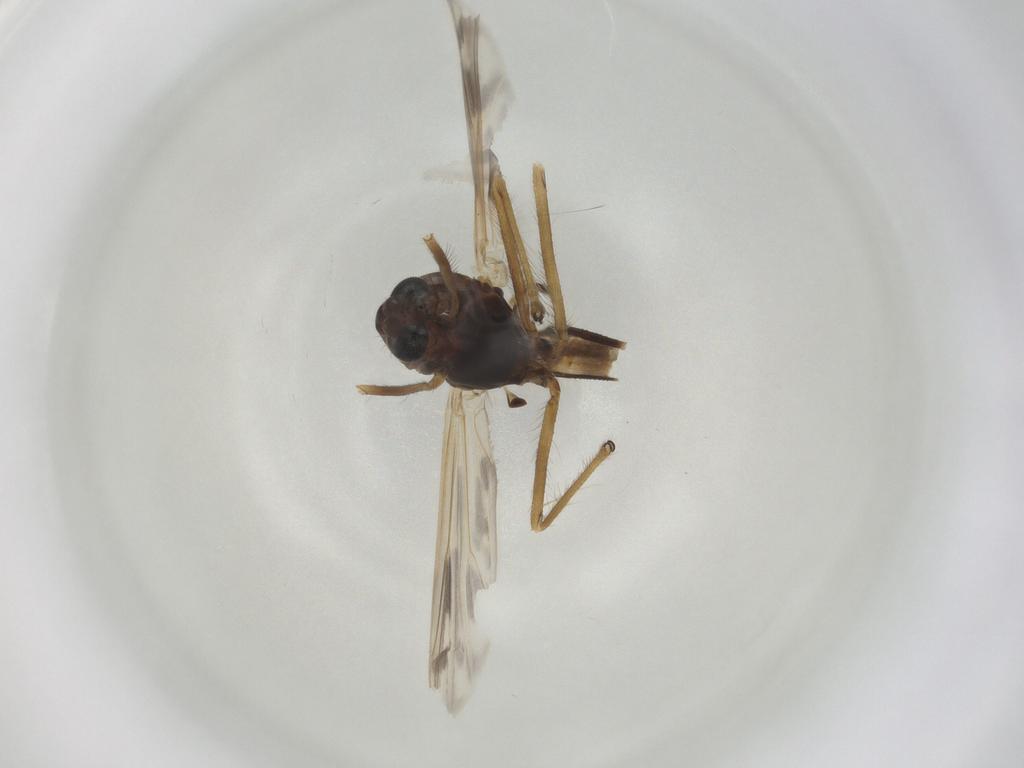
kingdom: Animalia
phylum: Arthropoda
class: Insecta
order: Diptera
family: Chironomidae
